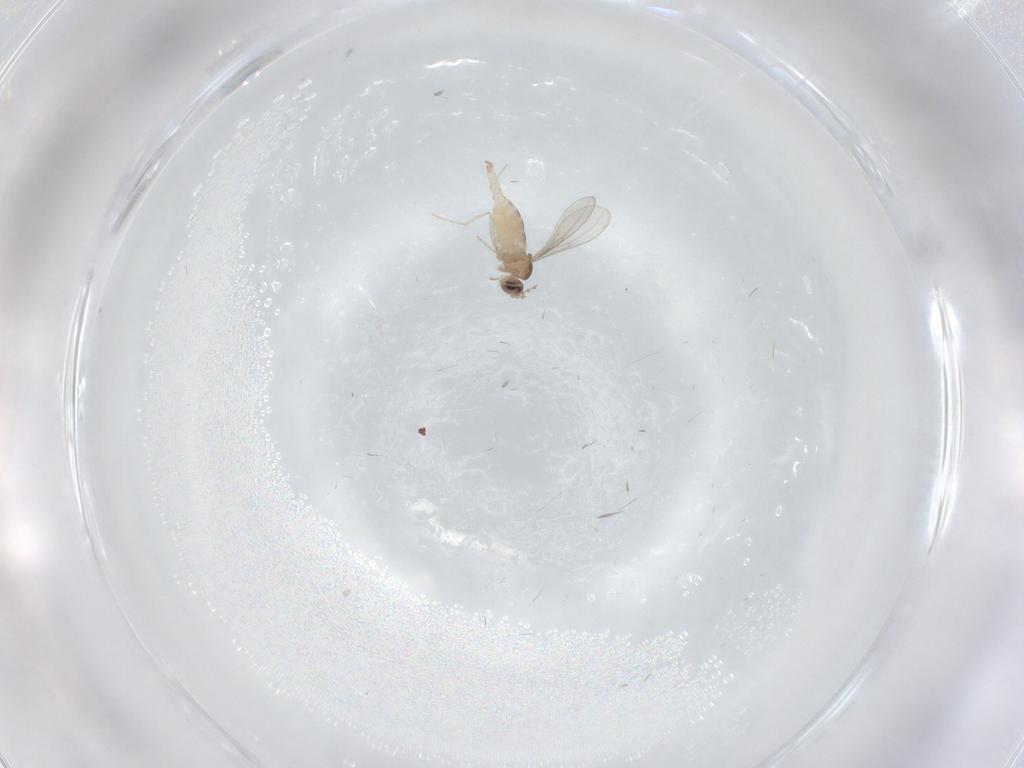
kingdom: Animalia
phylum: Arthropoda
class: Insecta
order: Diptera
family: Cecidomyiidae
